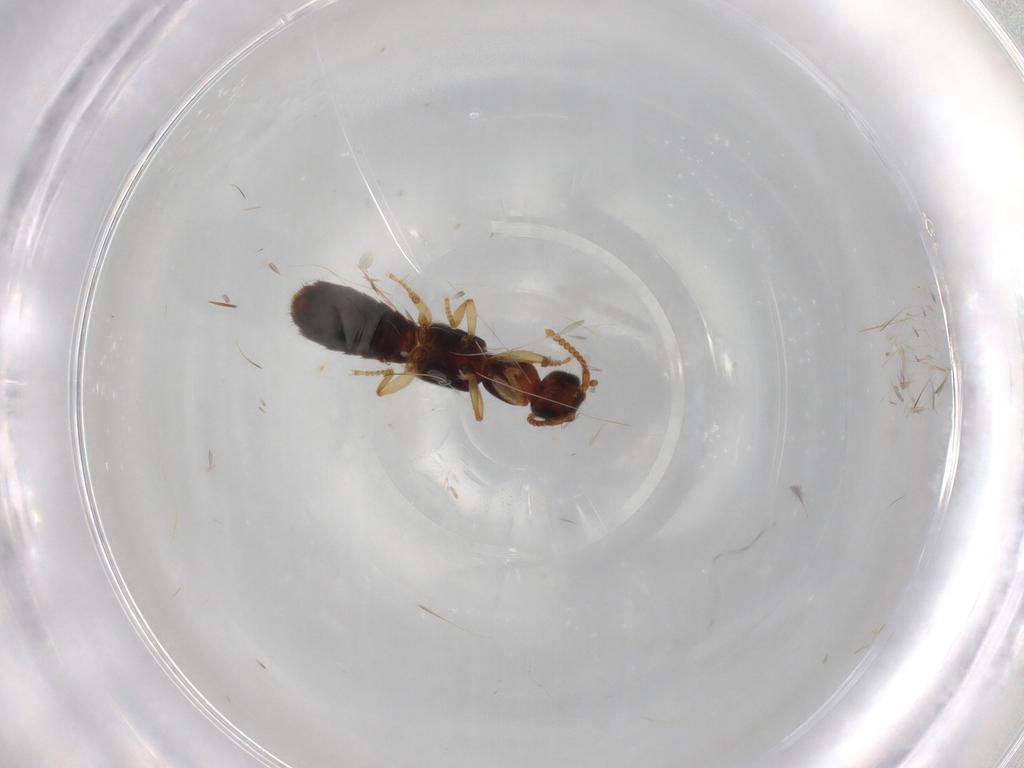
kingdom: Animalia
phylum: Arthropoda
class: Insecta
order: Coleoptera
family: Staphylinidae
